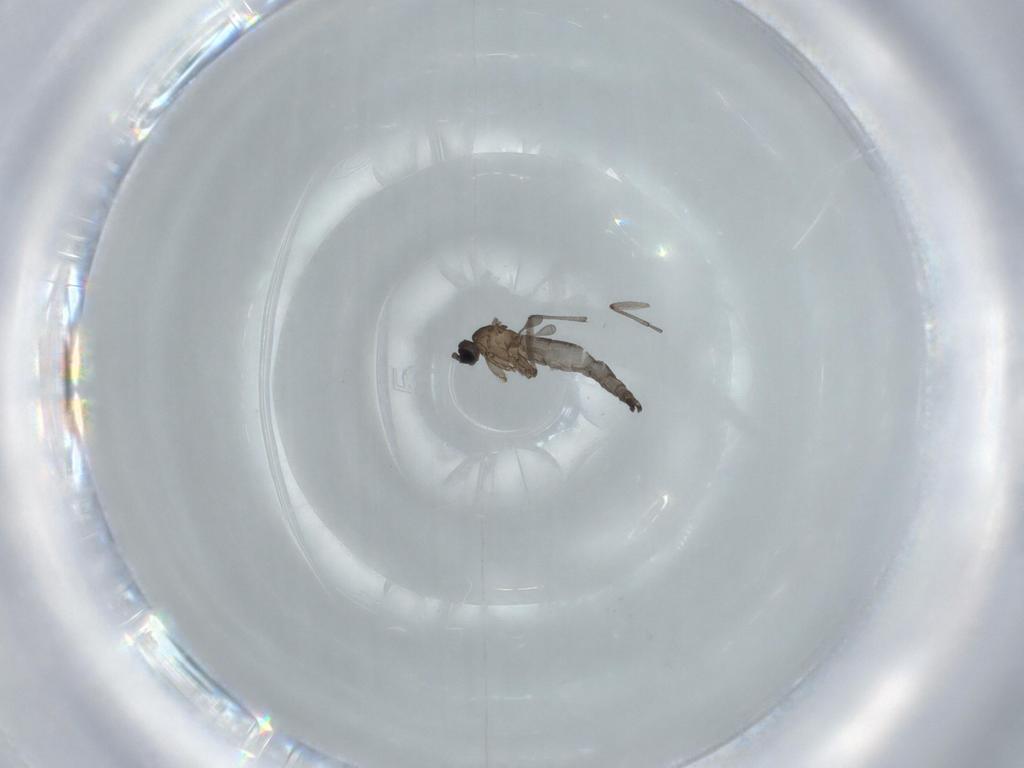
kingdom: Animalia
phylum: Arthropoda
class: Insecta
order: Diptera
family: Sciaridae
